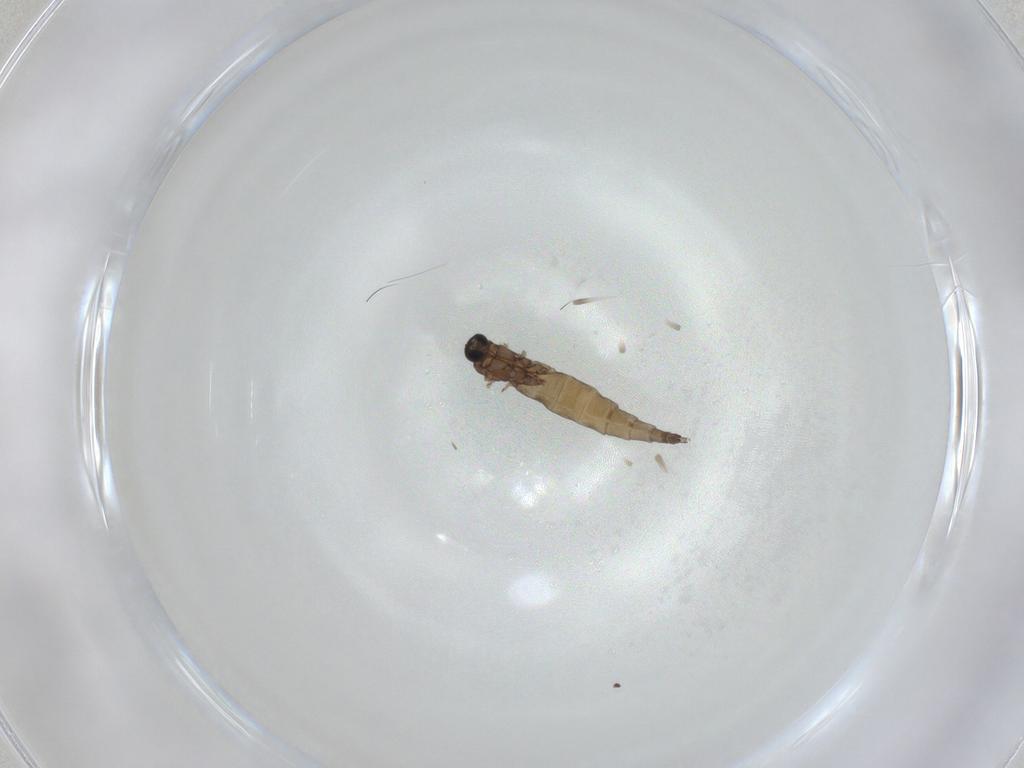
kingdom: Animalia
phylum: Arthropoda
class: Insecta
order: Diptera
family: Sciaridae
